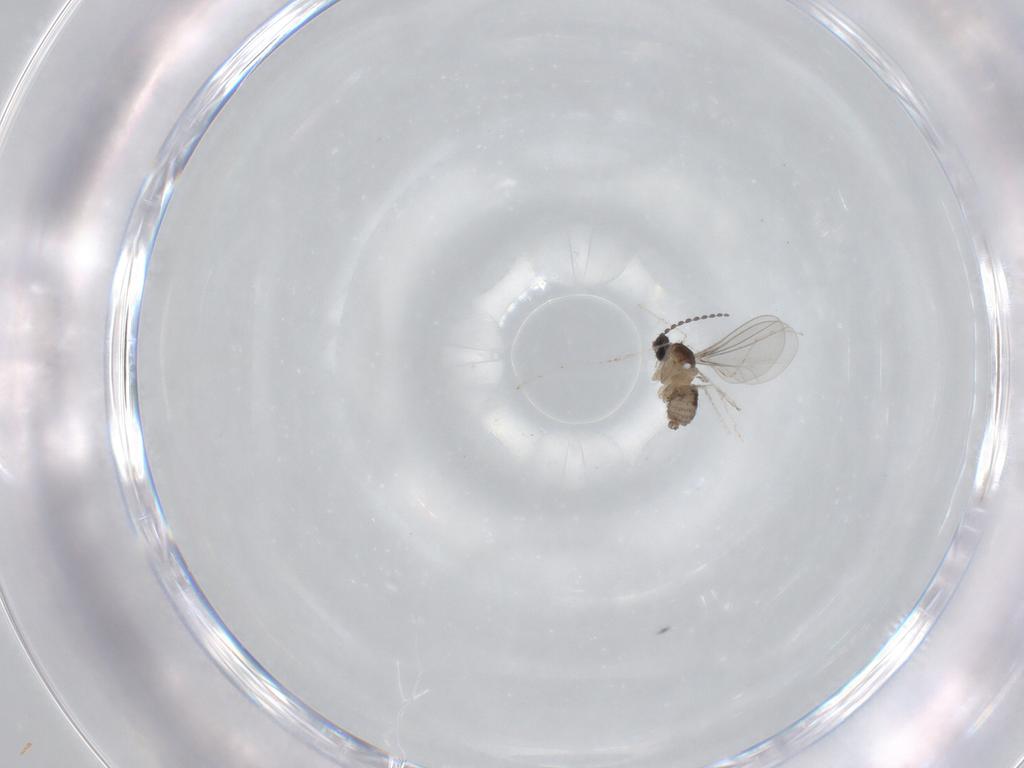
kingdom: Animalia
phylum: Arthropoda
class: Insecta
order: Diptera
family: Cecidomyiidae
